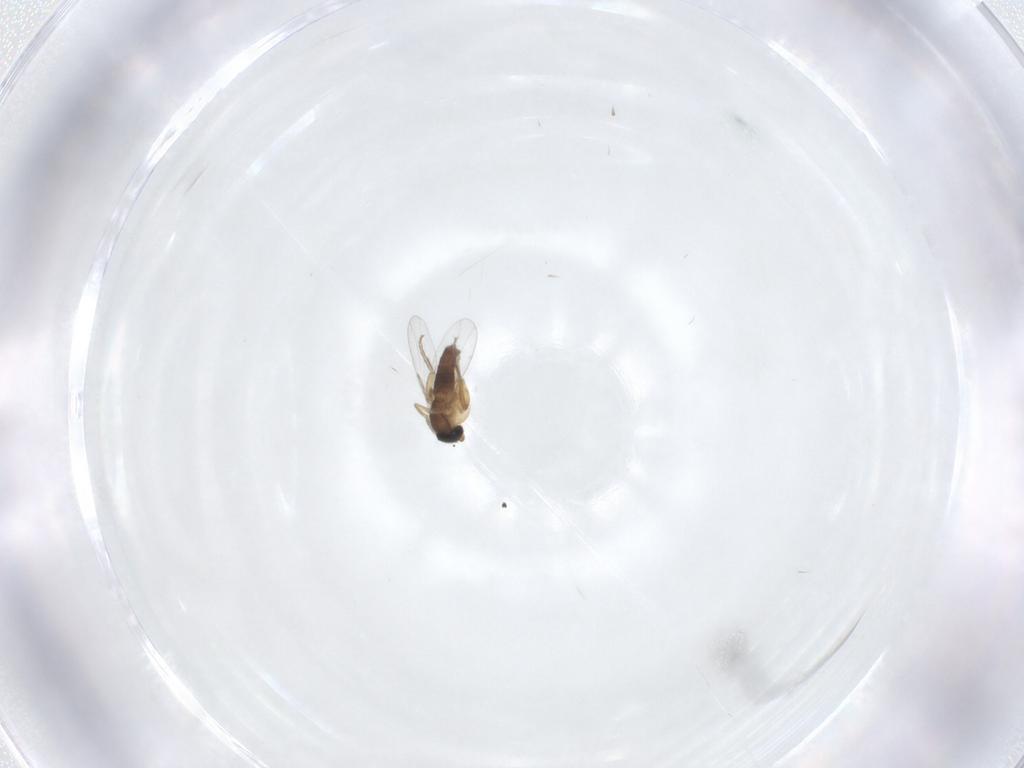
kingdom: Animalia
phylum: Arthropoda
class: Insecta
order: Diptera
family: Phoridae
